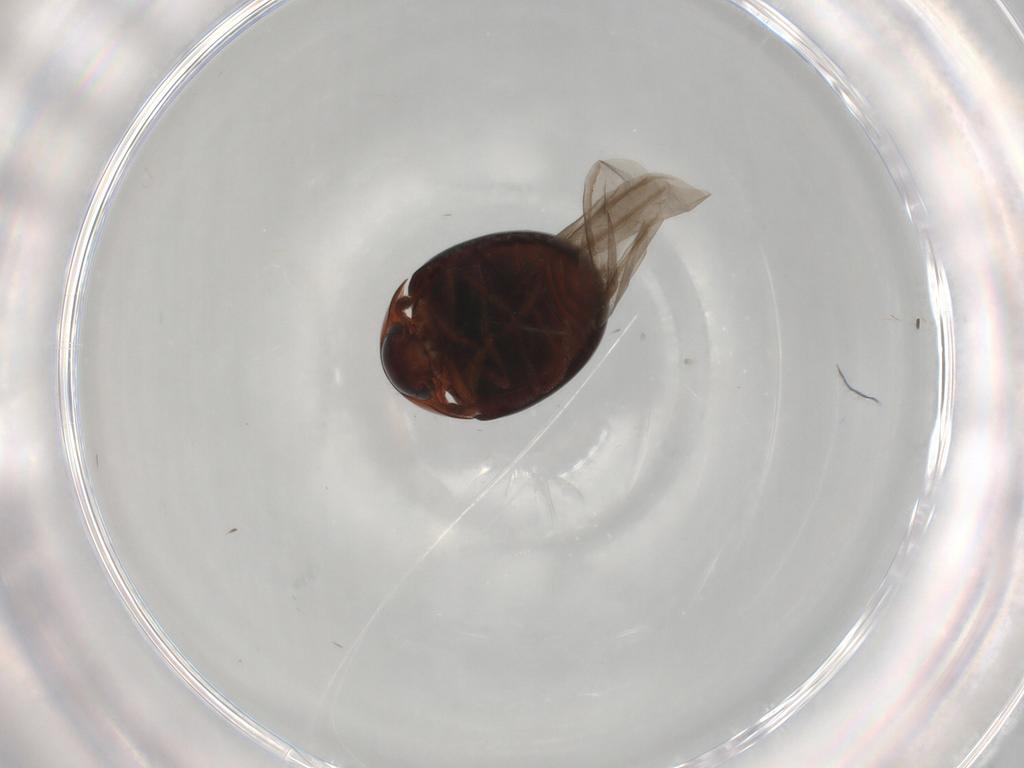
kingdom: Animalia
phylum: Arthropoda
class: Insecta
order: Coleoptera
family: Leiodidae
